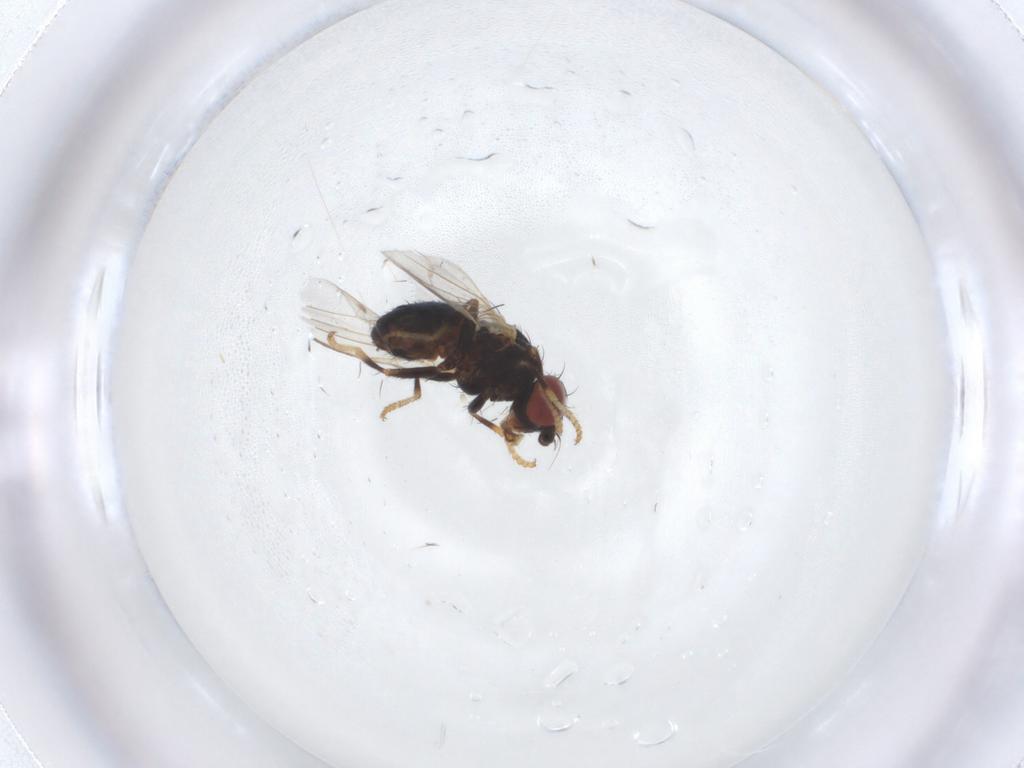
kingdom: Animalia
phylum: Arthropoda
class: Insecta
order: Diptera
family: Chamaemyiidae
